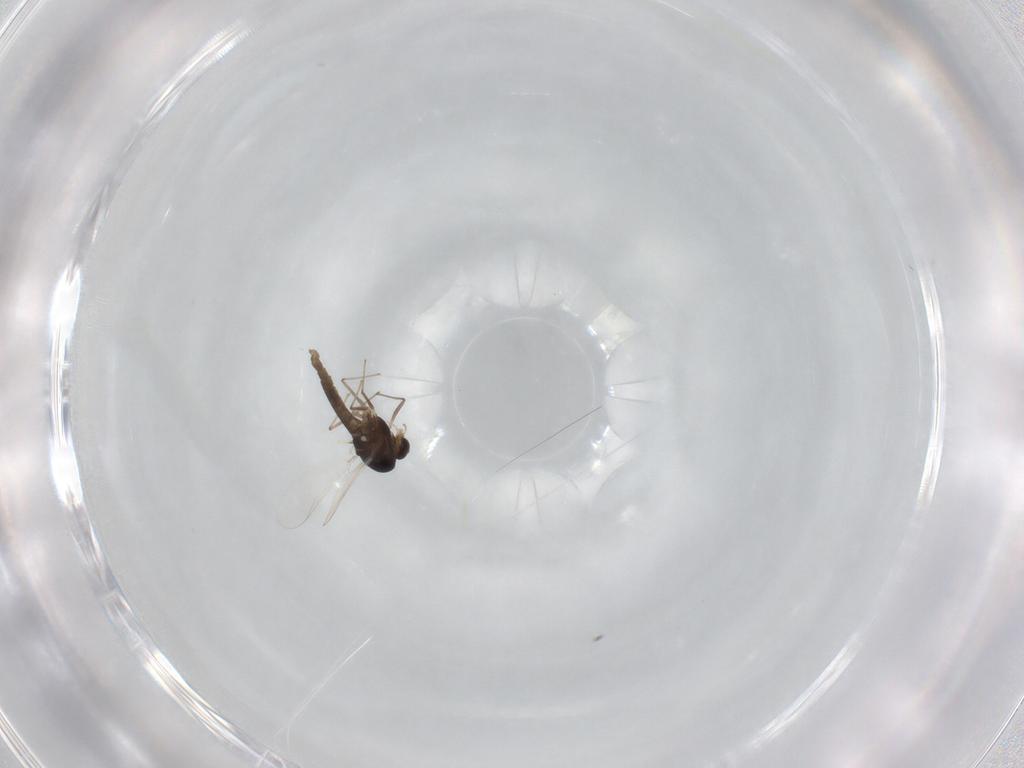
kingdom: Animalia
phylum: Arthropoda
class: Insecta
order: Diptera
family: Chironomidae
